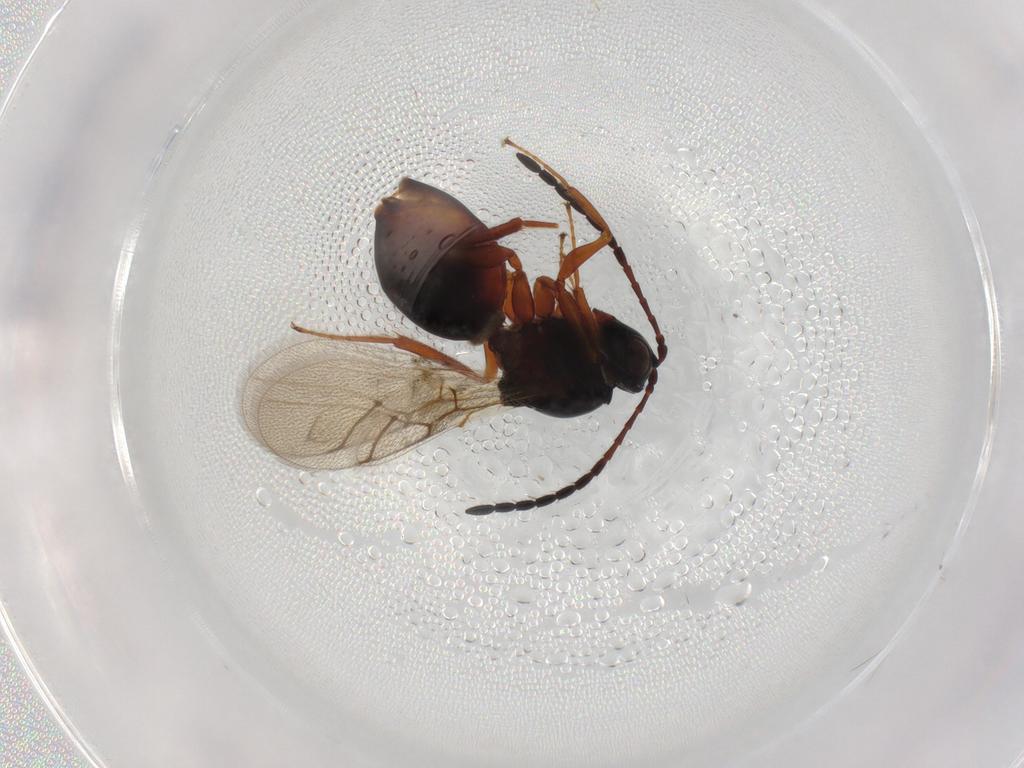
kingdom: Animalia
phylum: Arthropoda
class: Insecta
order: Hymenoptera
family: Figitidae
